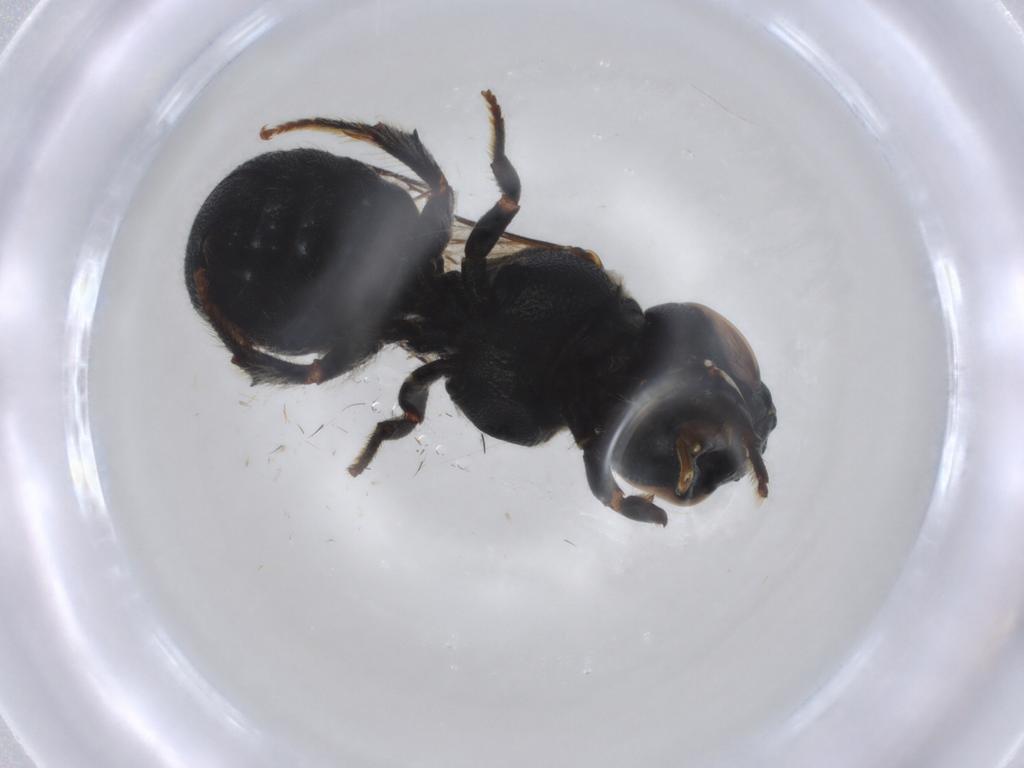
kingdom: Animalia
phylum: Arthropoda
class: Insecta
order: Hymenoptera
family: Apidae
